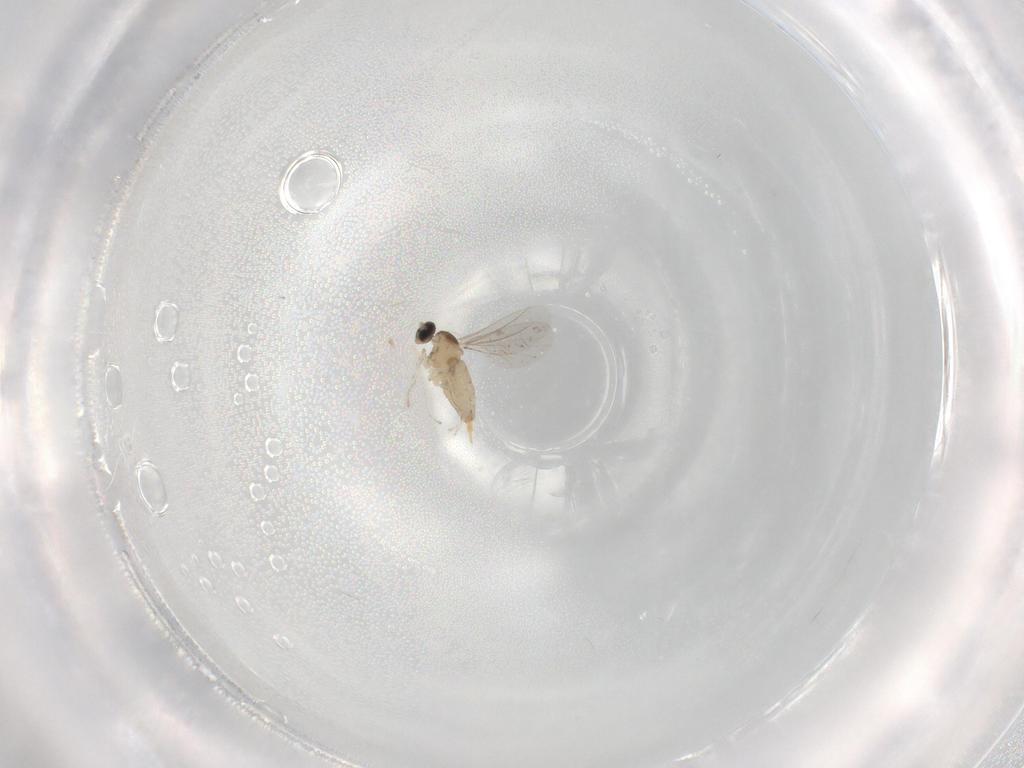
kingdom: Animalia
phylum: Arthropoda
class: Insecta
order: Diptera
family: Cecidomyiidae
